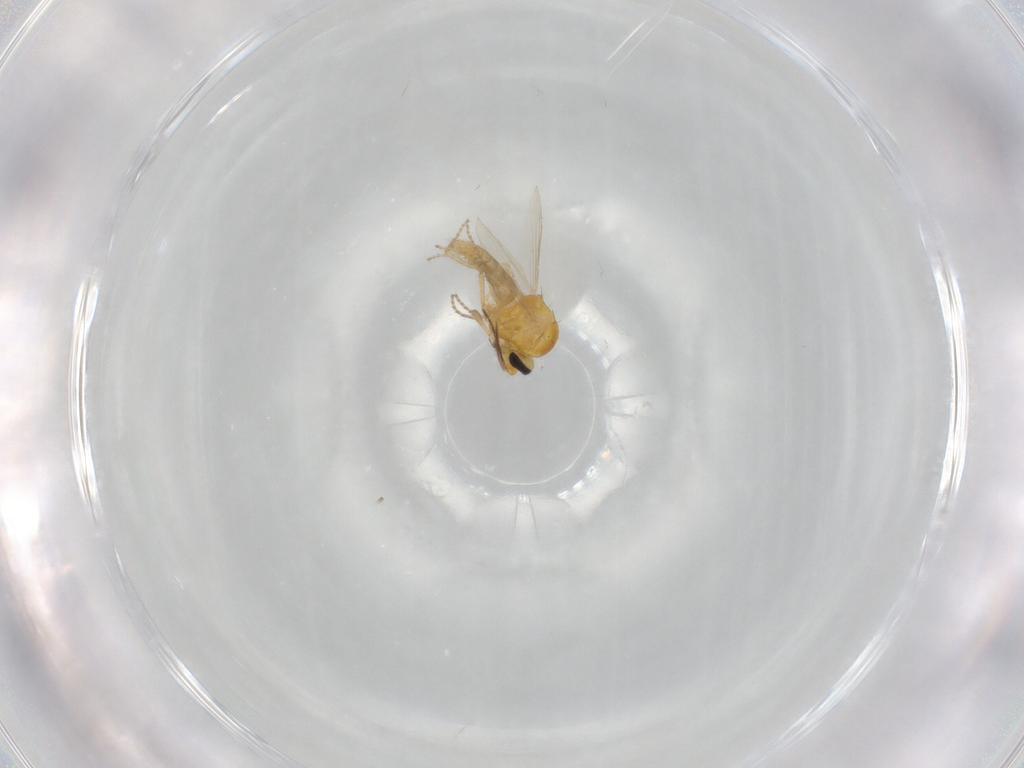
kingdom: Animalia
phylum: Arthropoda
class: Insecta
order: Diptera
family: Ceratopogonidae
